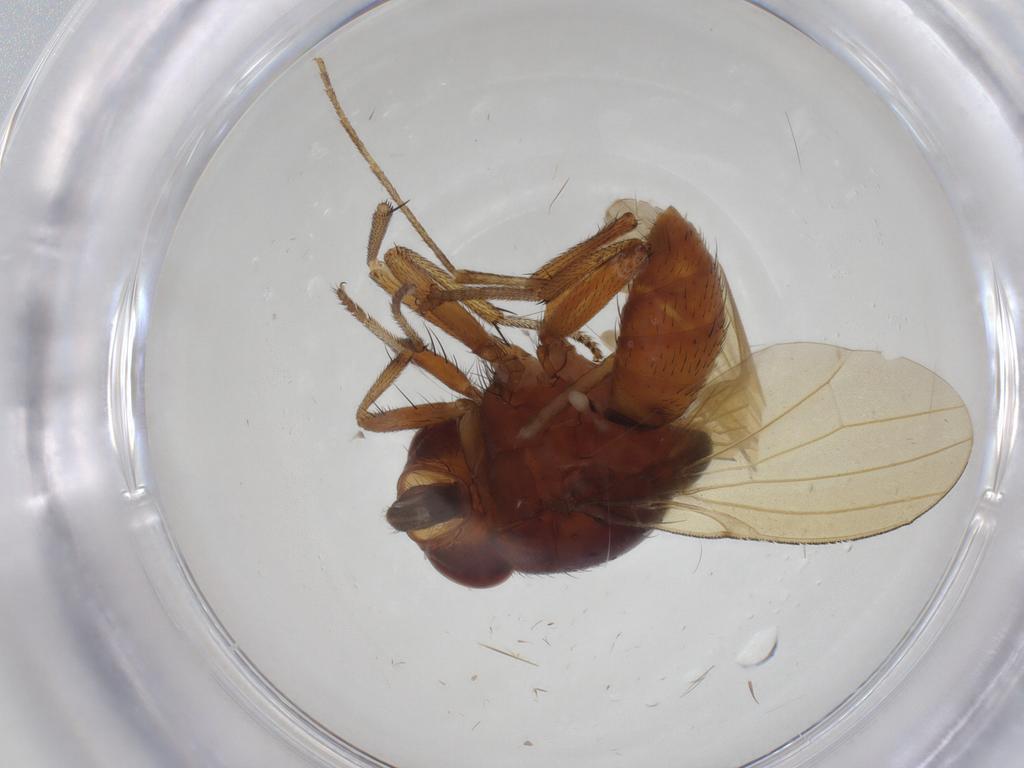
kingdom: Animalia
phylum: Arthropoda
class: Insecta
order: Diptera
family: Lauxaniidae
